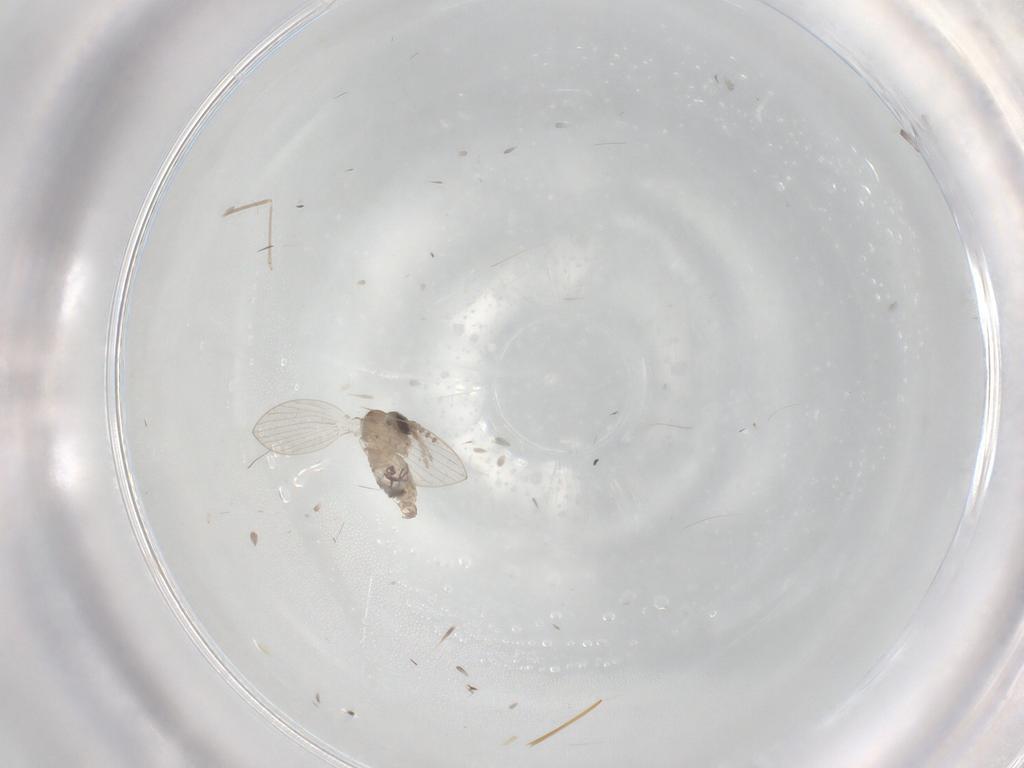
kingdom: Animalia
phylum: Arthropoda
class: Insecta
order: Diptera
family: Psychodidae
